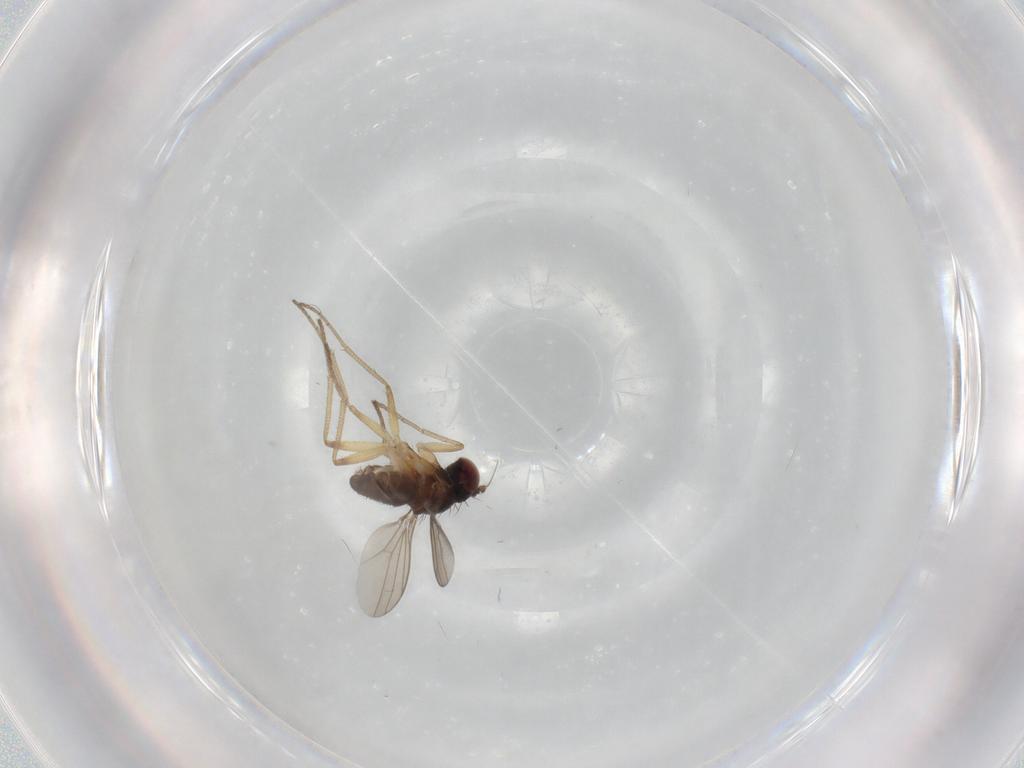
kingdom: Animalia
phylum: Arthropoda
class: Insecta
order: Diptera
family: Dolichopodidae
